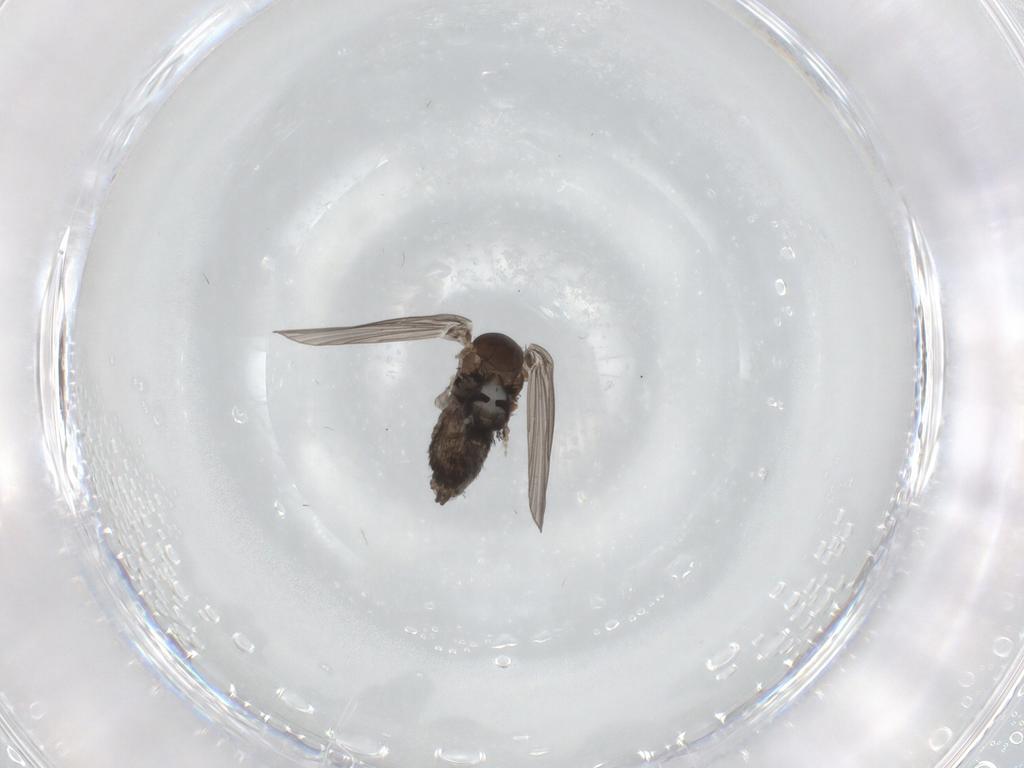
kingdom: Animalia
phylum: Arthropoda
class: Insecta
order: Diptera
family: Psychodidae
